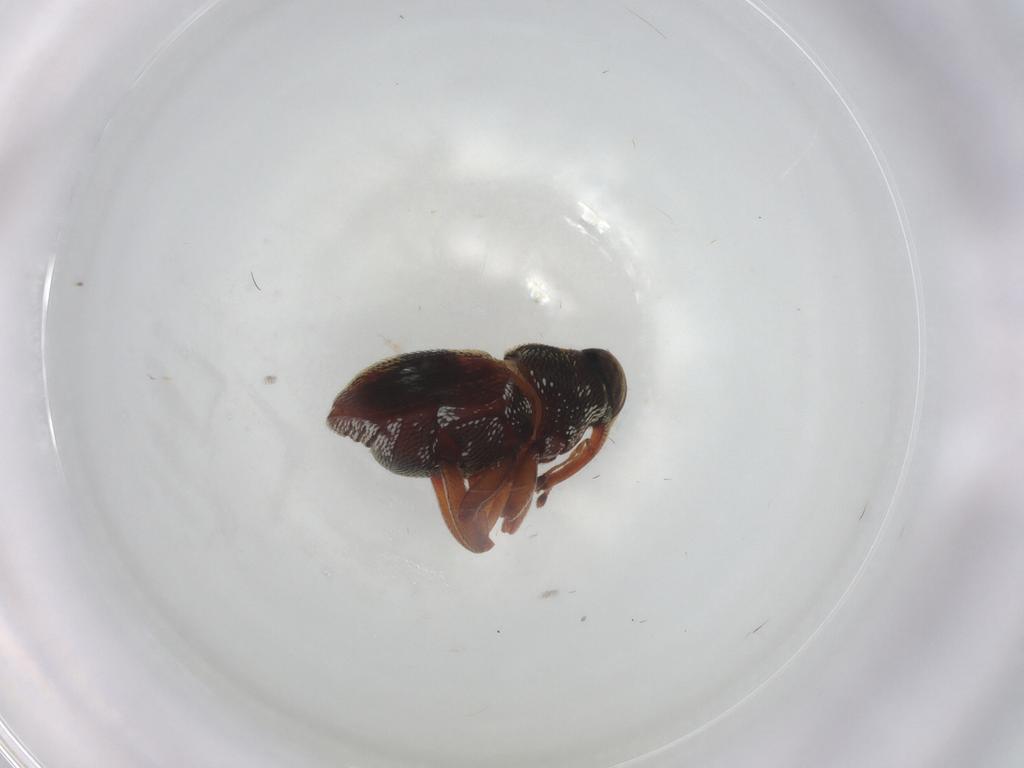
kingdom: Animalia
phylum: Arthropoda
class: Insecta
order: Coleoptera
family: Curculionidae
